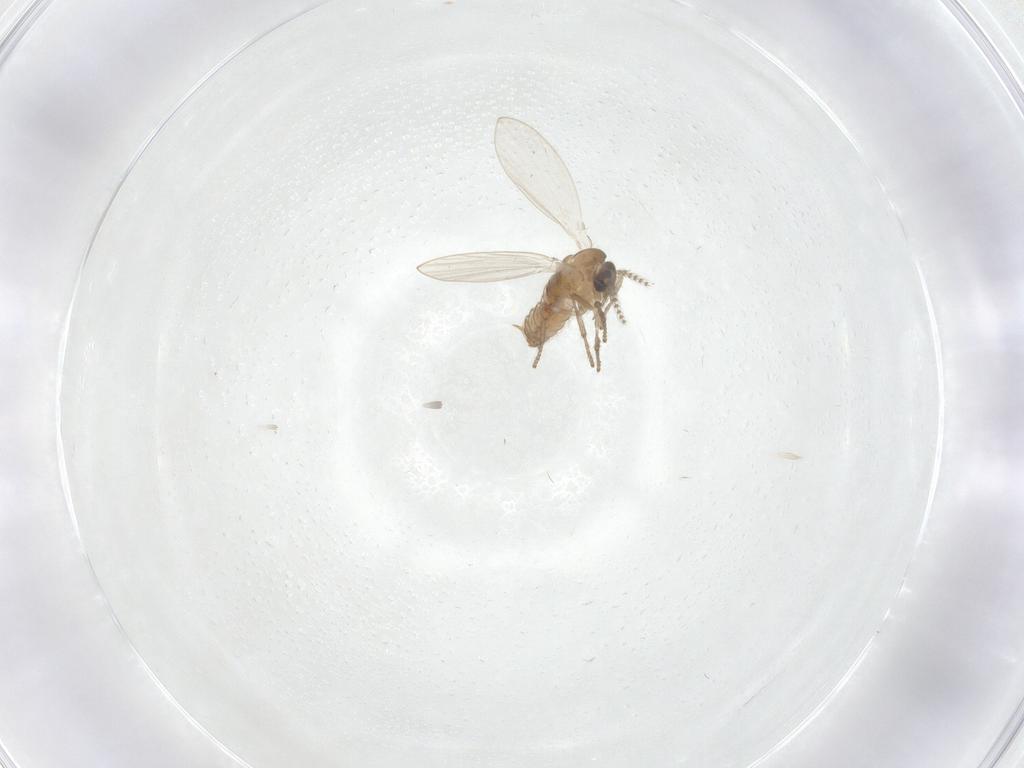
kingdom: Animalia
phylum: Arthropoda
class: Insecta
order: Diptera
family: Psychodidae
